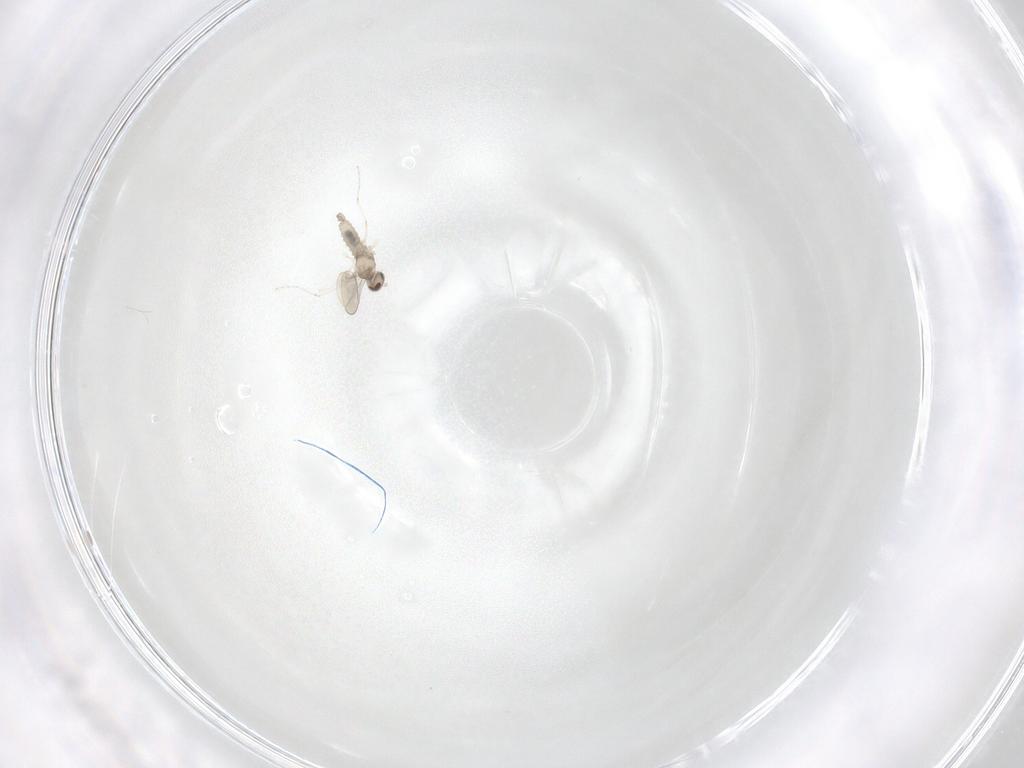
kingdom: Animalia
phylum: Arthropoda
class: Insecta
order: Diptera
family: Cecidomyiidae
